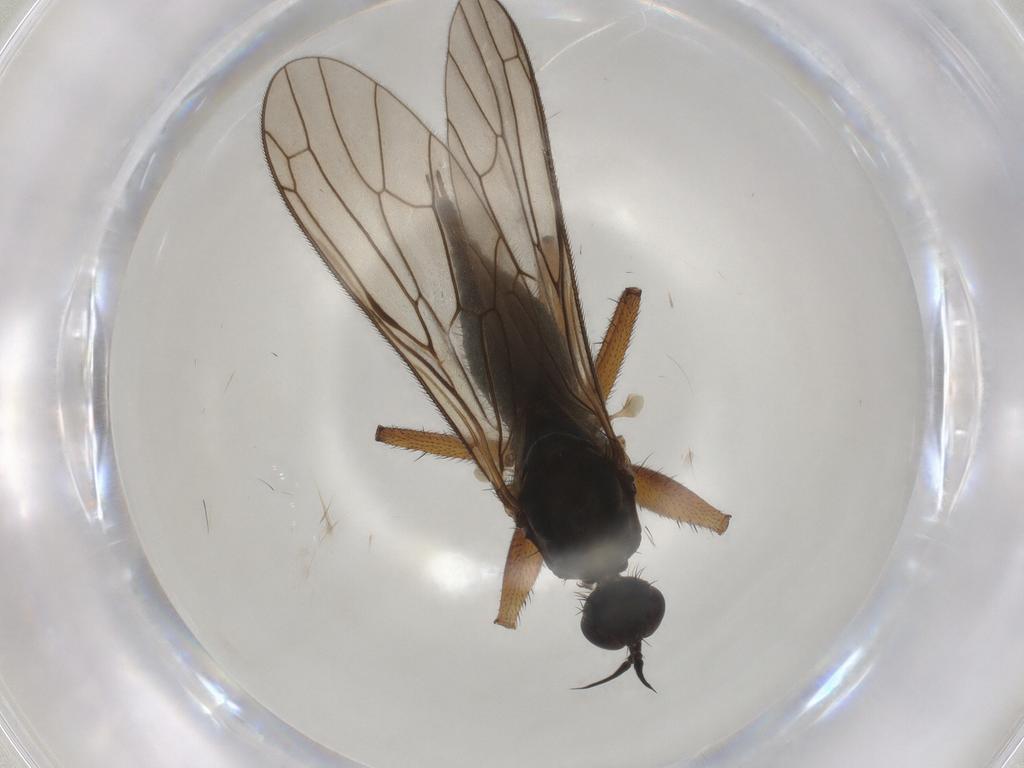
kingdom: Animalia
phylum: Arthropoda
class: Insecta
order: Diptera
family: Empididae
